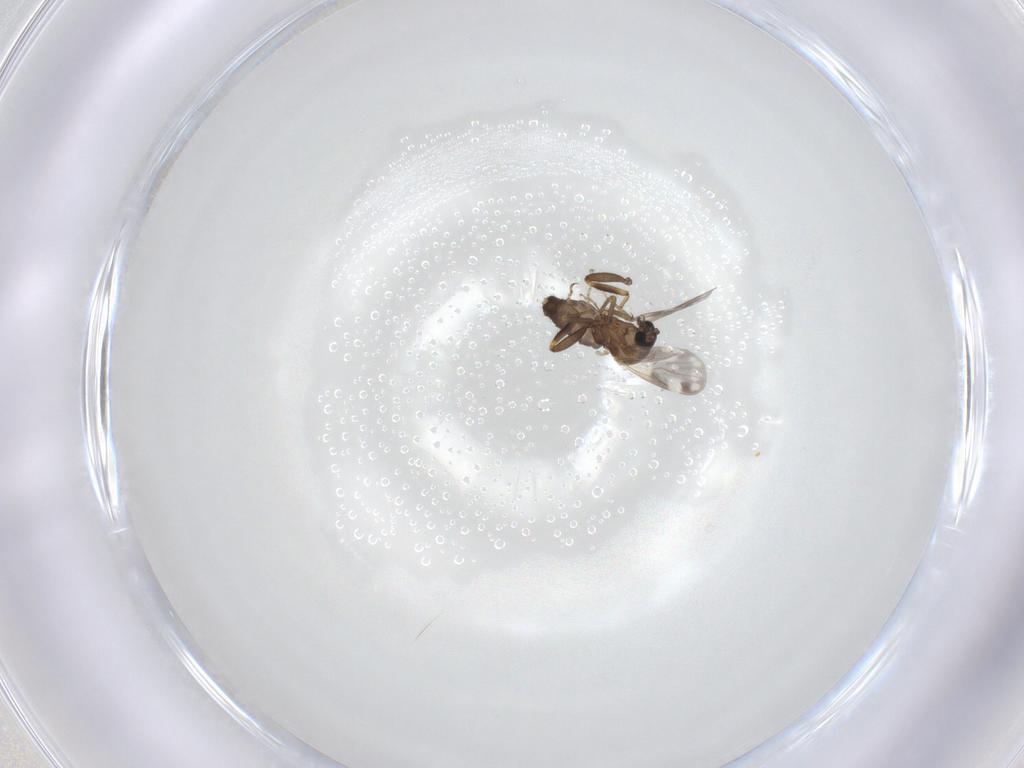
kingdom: Animalia
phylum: Arthropoda
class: Insecta
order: Diptera
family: Ceratopogonidae
